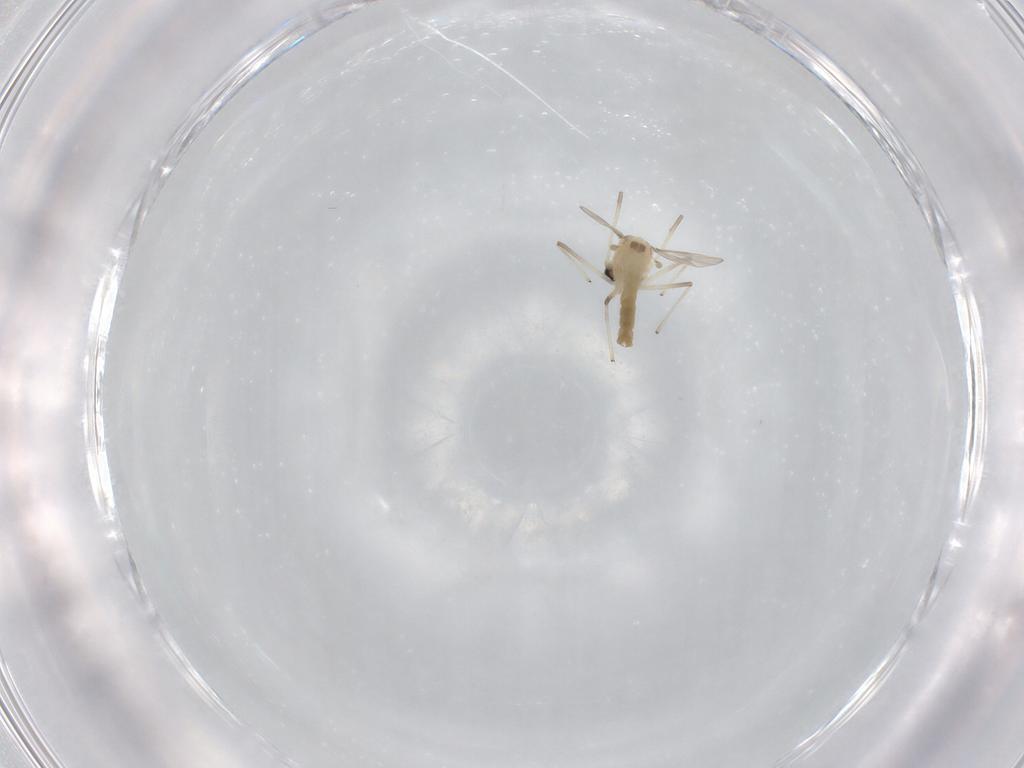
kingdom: Animalia
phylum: Arthropoda
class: Insecta
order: Diptera
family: Chironomidae
